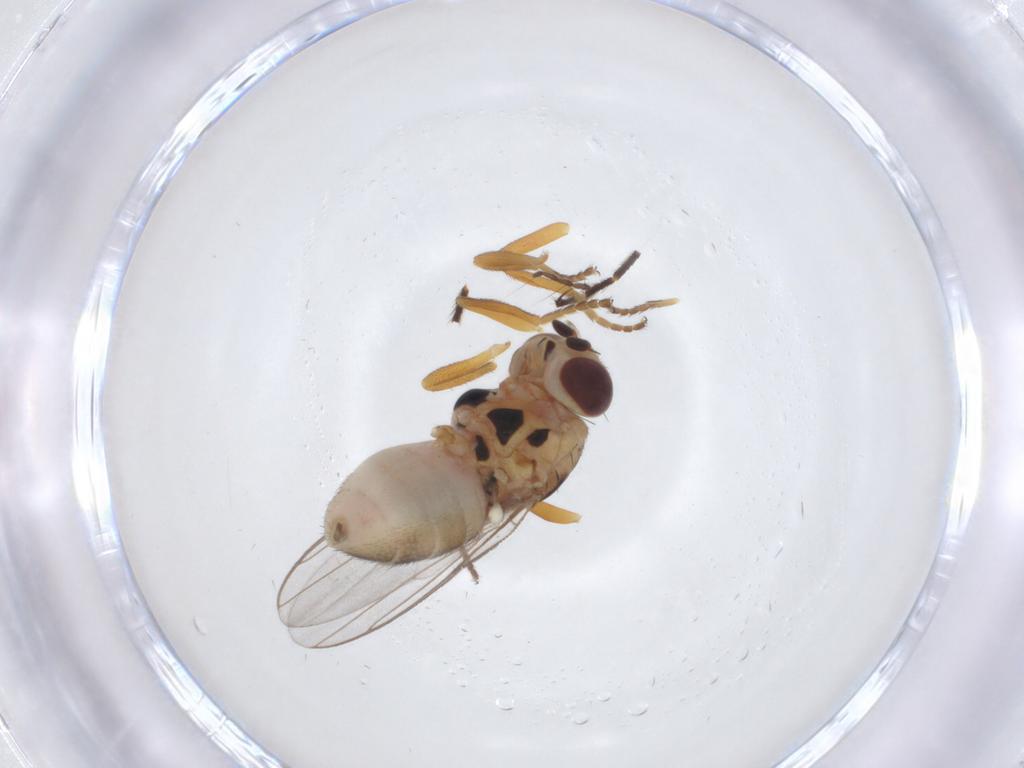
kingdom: Animalia
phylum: Arthropoda
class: Insecta
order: Diptera
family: Chloropidae
